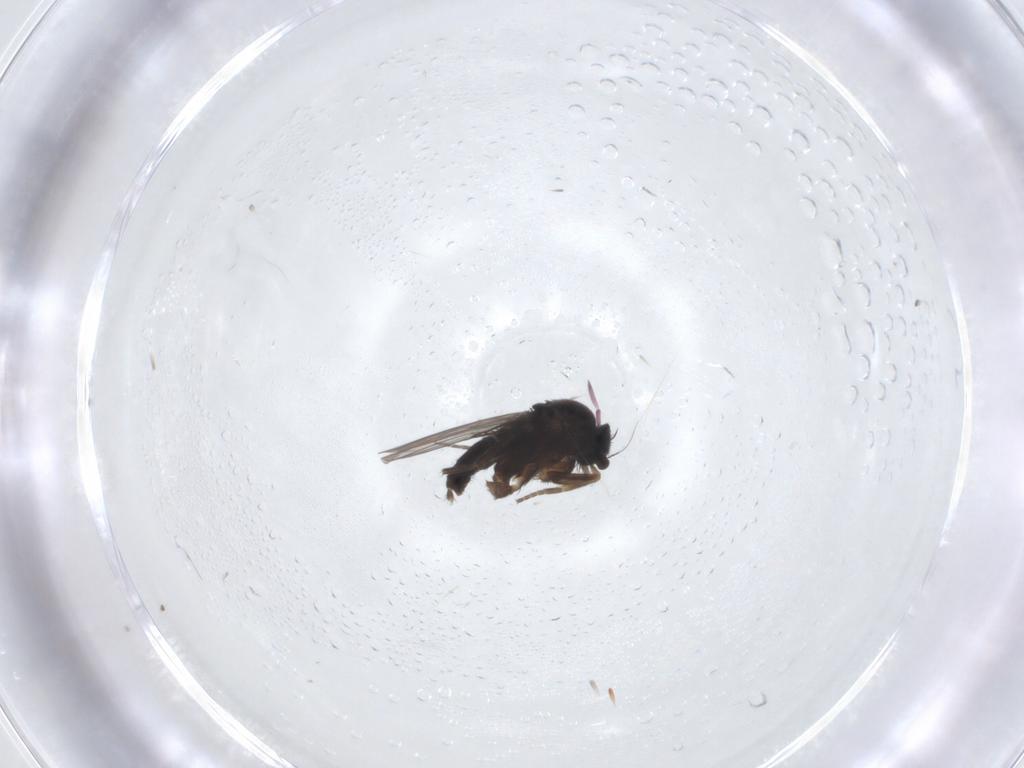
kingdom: Animalia
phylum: Arthropoda
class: Insecta
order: Diptera
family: Phoridae
